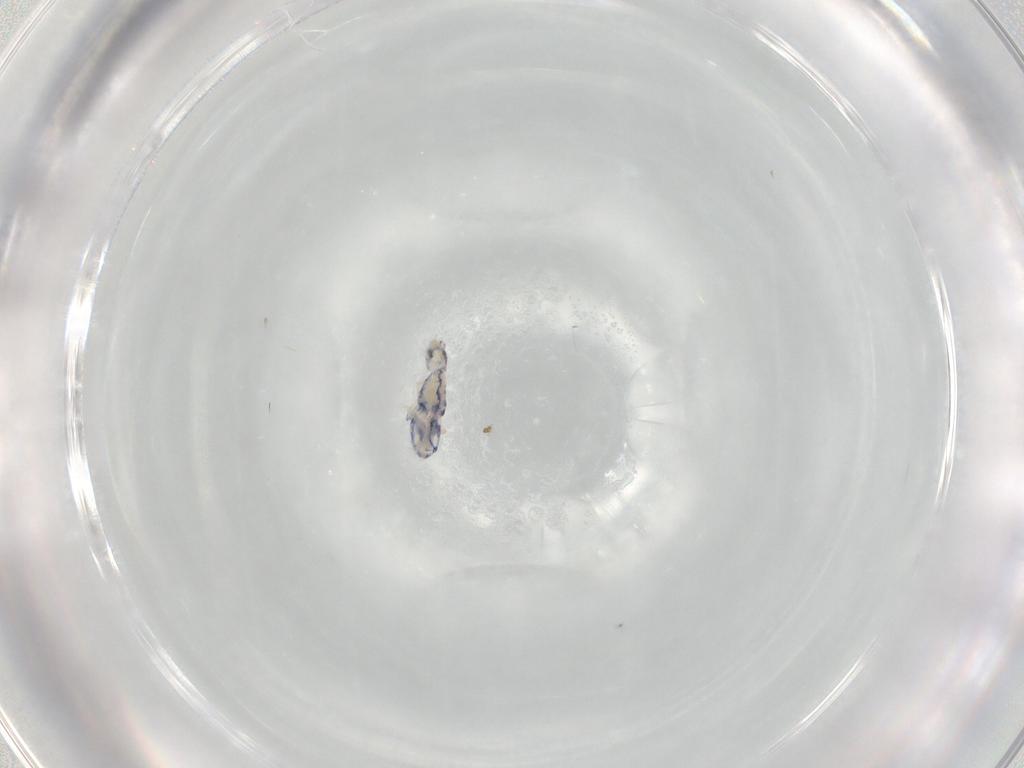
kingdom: Animalia
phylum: Arthropoda
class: Collembola
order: Entomobryomorpha
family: Entomobryidae
